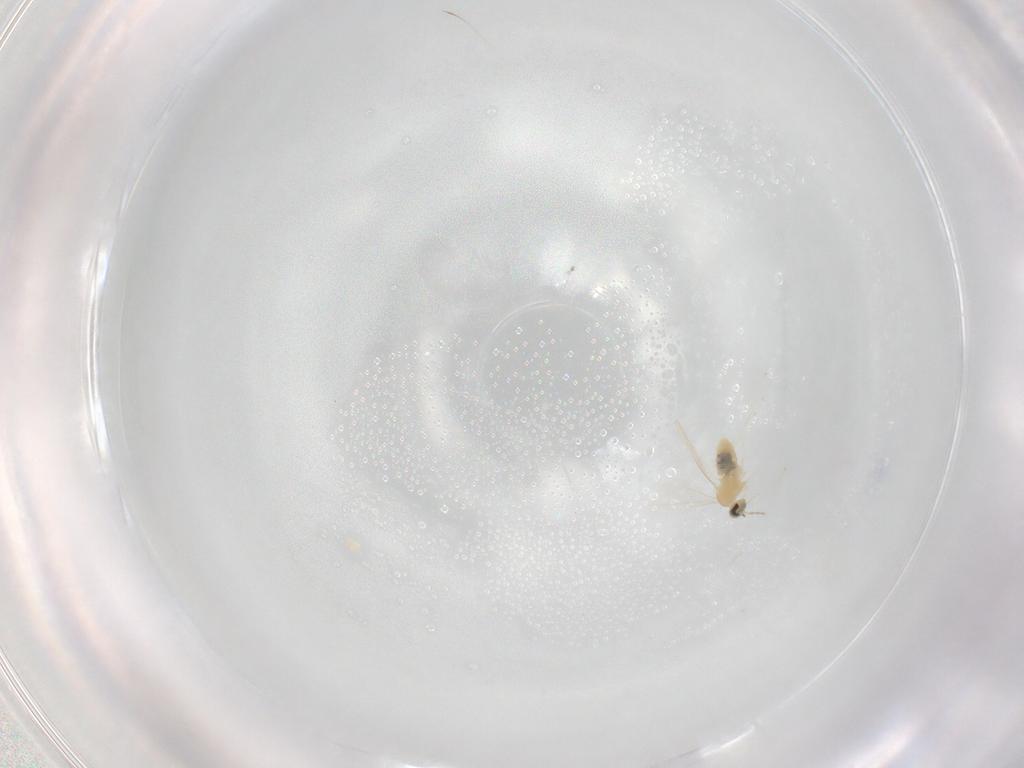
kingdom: Animalia
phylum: Arthropoda
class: Insecta
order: Diptera
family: Cecidomyiidae
